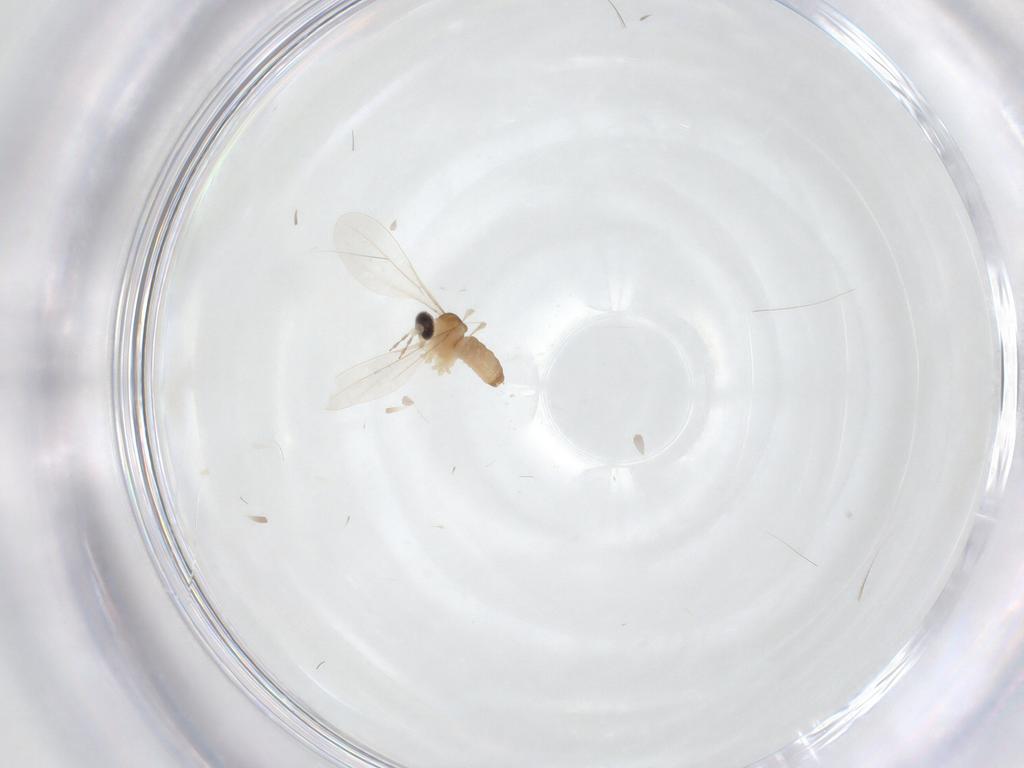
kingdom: Animalia
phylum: Arthropoda
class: Insecta
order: Diptera
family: Cecidomyiidae
